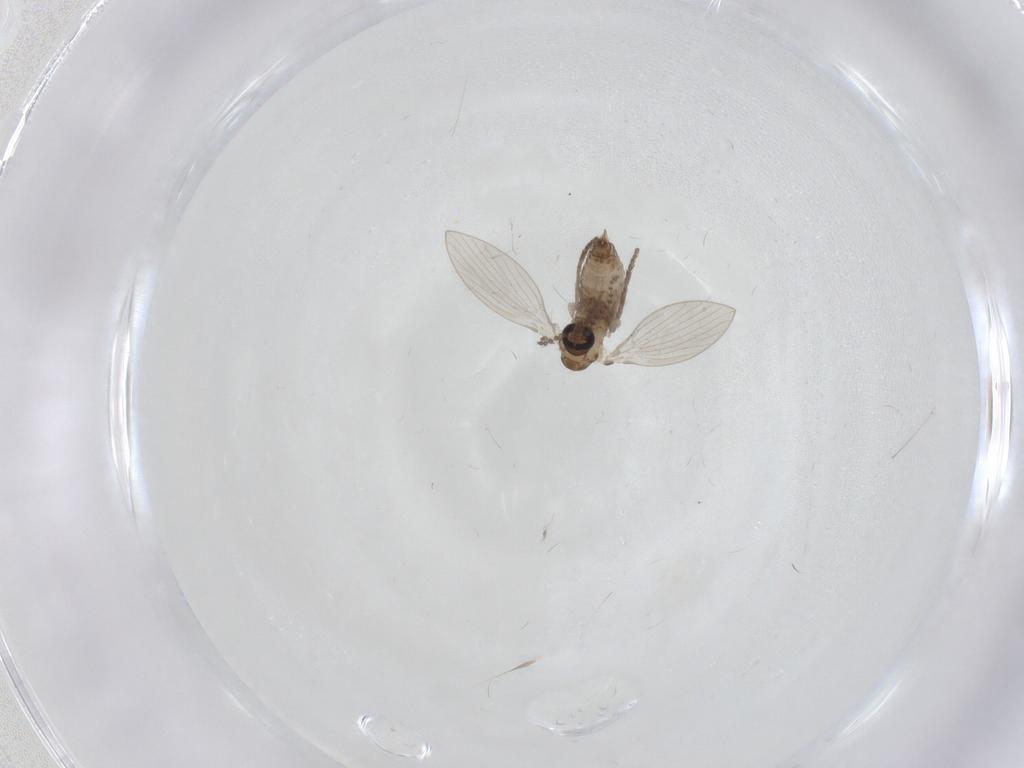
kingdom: Animalia
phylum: Arthropoda
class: Insecta
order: Diptera
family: Psychodidae
